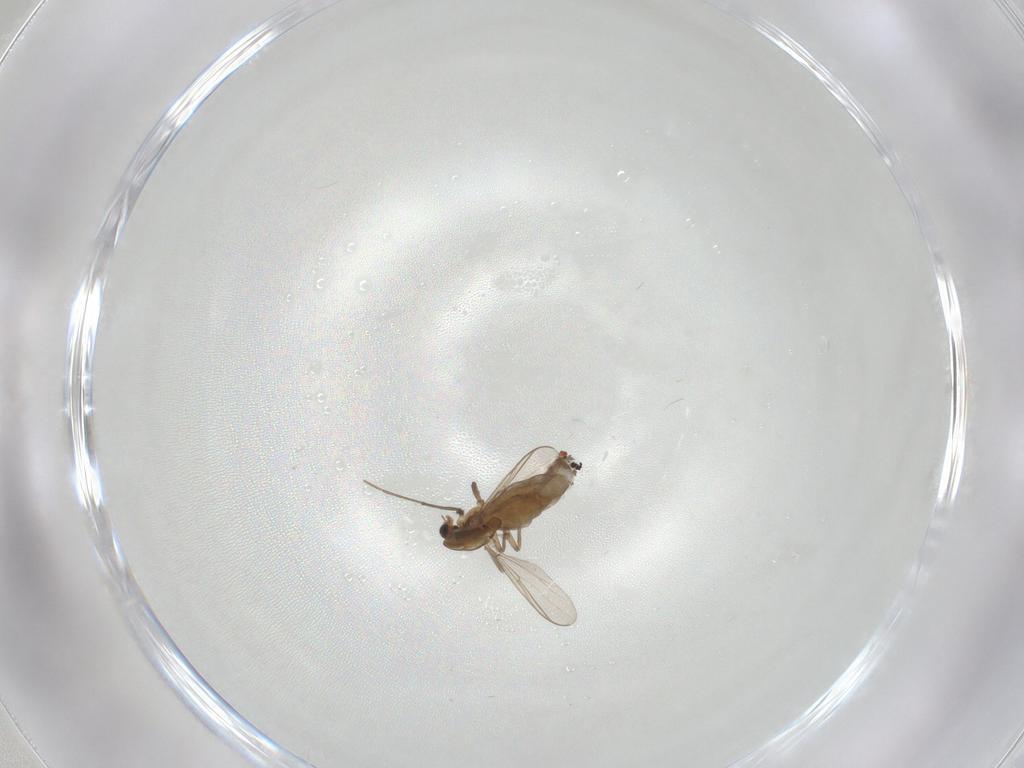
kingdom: Animalia
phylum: Arthropoda
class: Insecta
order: Diptera
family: Chironomidae
